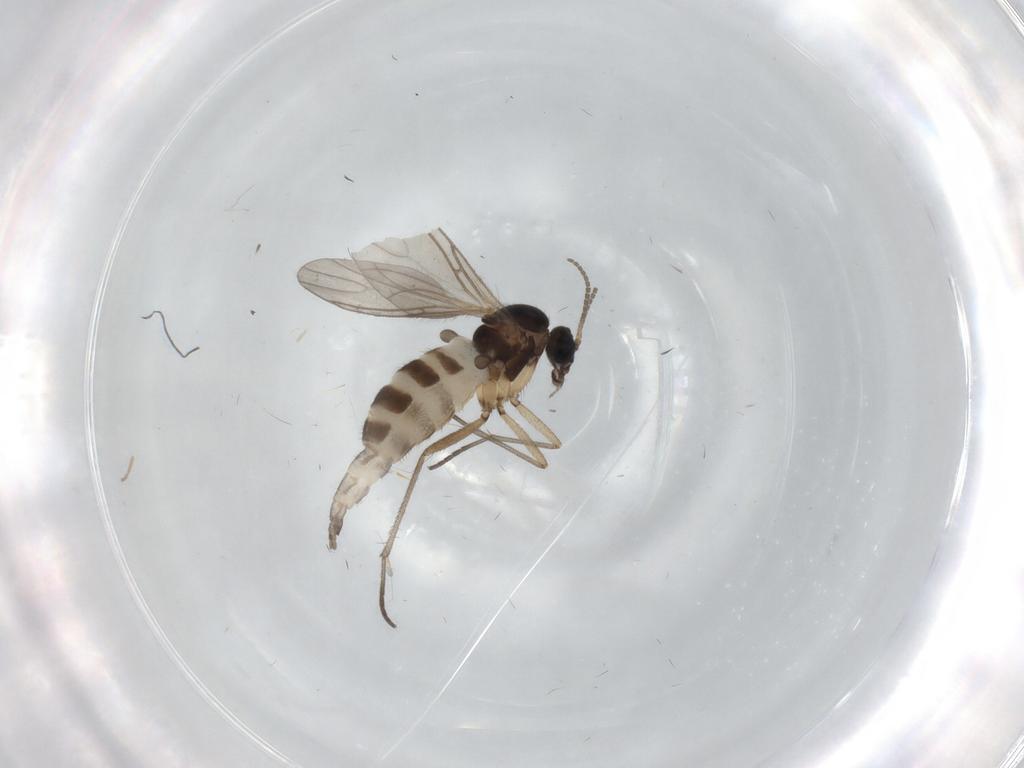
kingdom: Animalia
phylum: Arthropoda
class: Insecta
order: Diptera
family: Sciaridae
